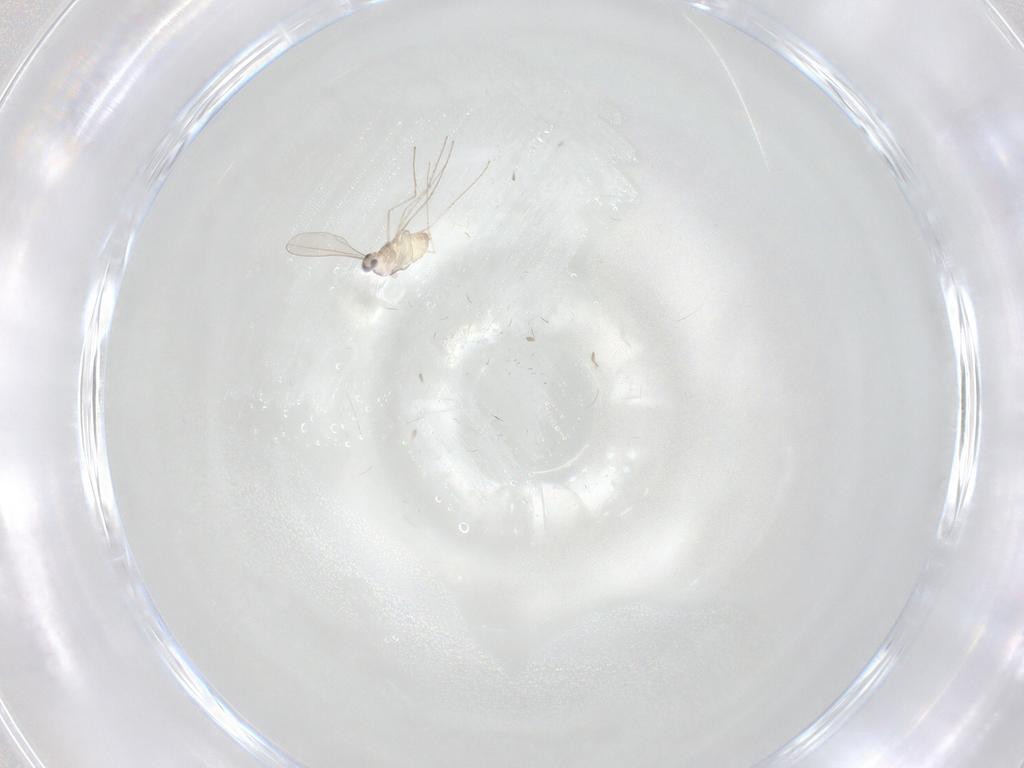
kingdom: Animalia
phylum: Arthropoda
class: Insecta
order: Diptera
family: Cecidomyiidae
